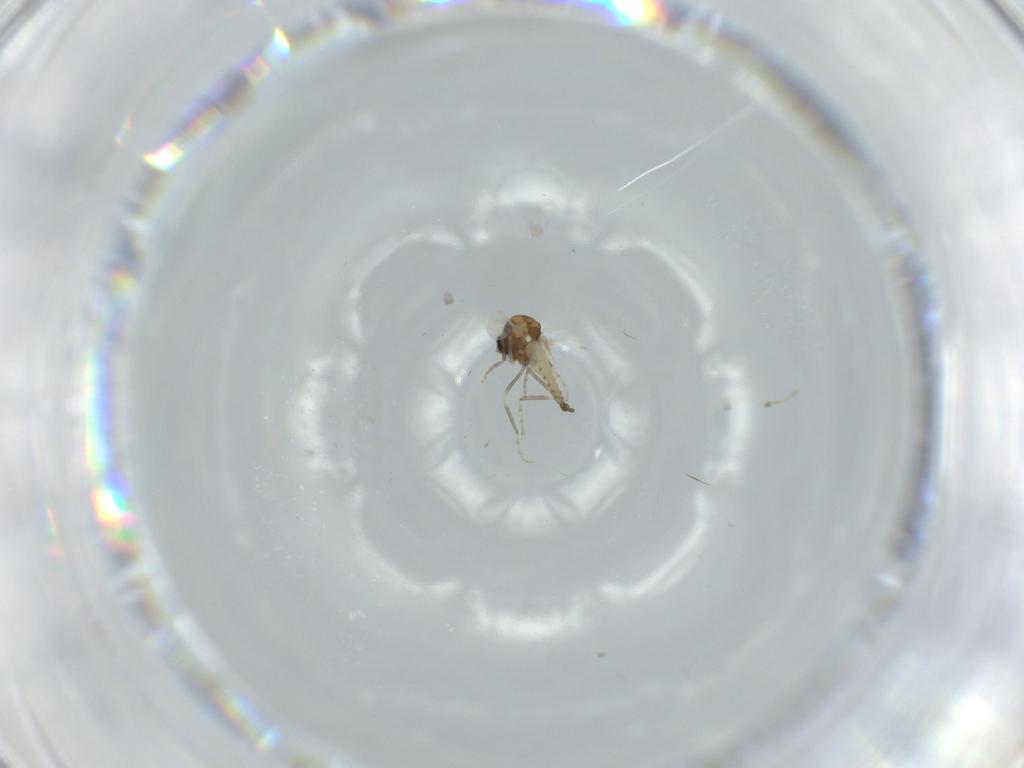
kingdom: Animalia
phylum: Arthropoda
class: Insecta
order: Diptera
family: Ceratopogonidae
